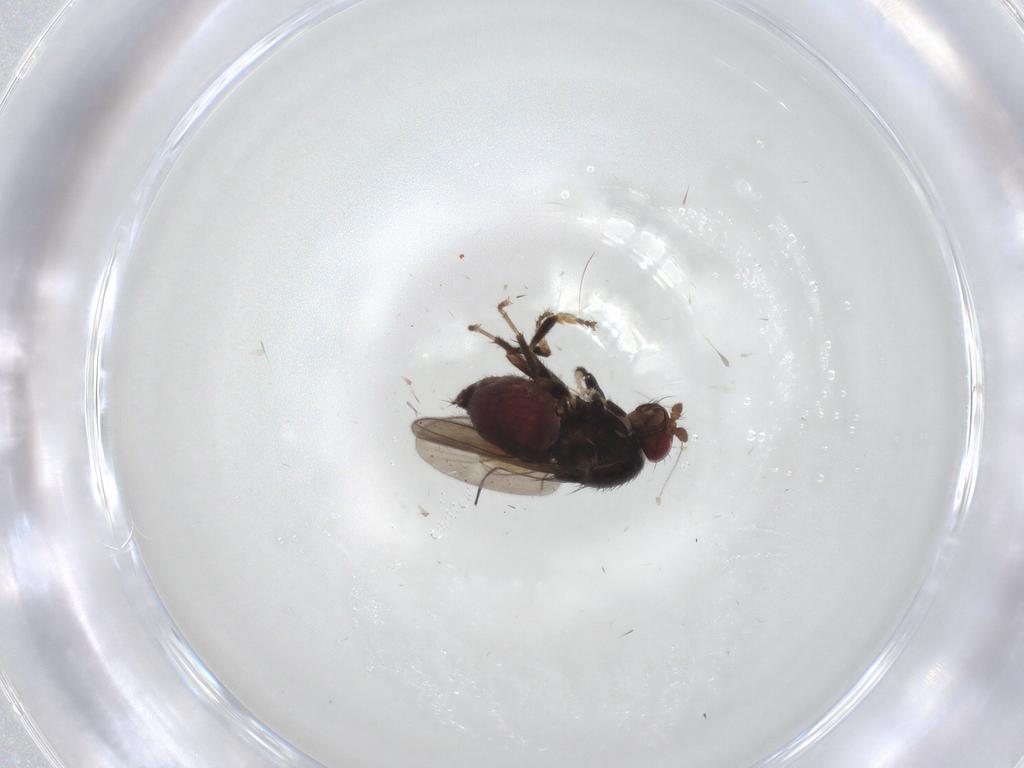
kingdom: Animalia
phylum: Arthropoda
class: Insecta
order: Diptera
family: Sphaeroceridae
